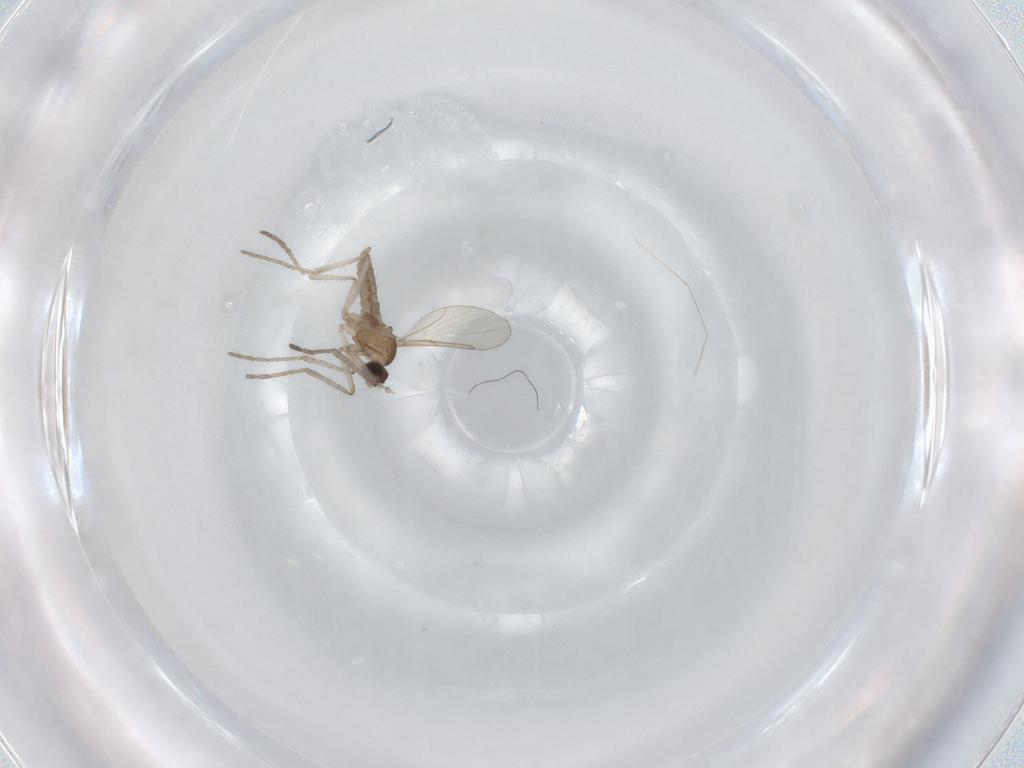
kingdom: Animalia
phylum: Arthropoda
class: Insecta
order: Diptera
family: Cecidomyiidae
